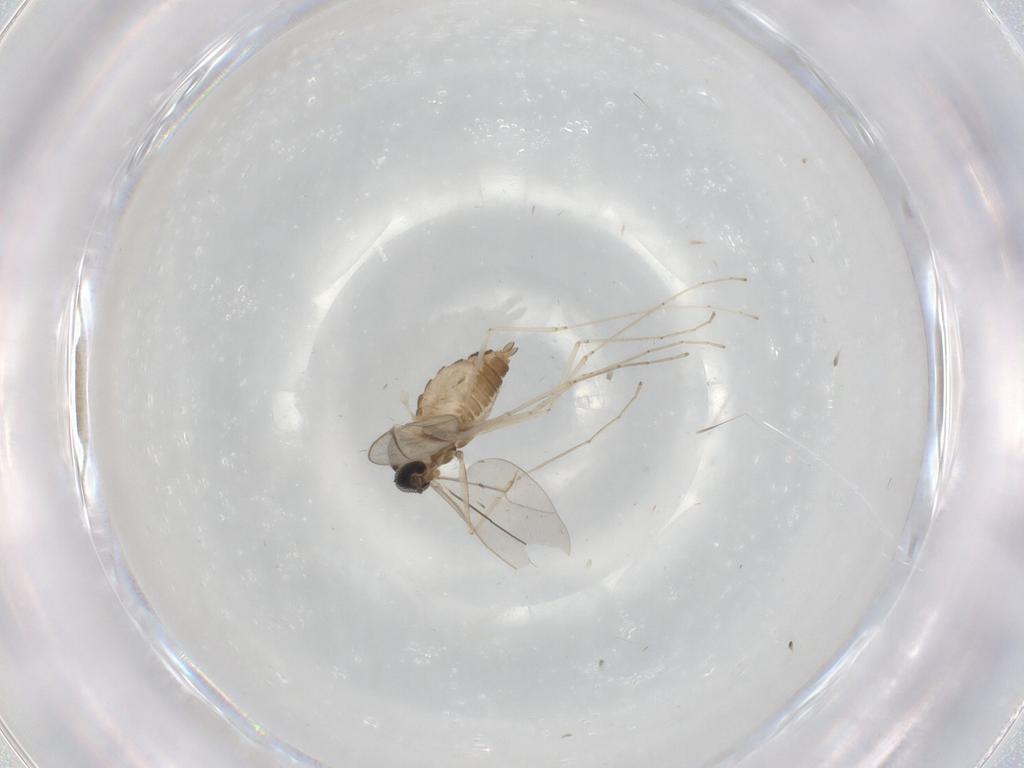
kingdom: Animalia
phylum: Arthropoda
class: Insecta
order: Diptera
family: Cecidomyiidae
